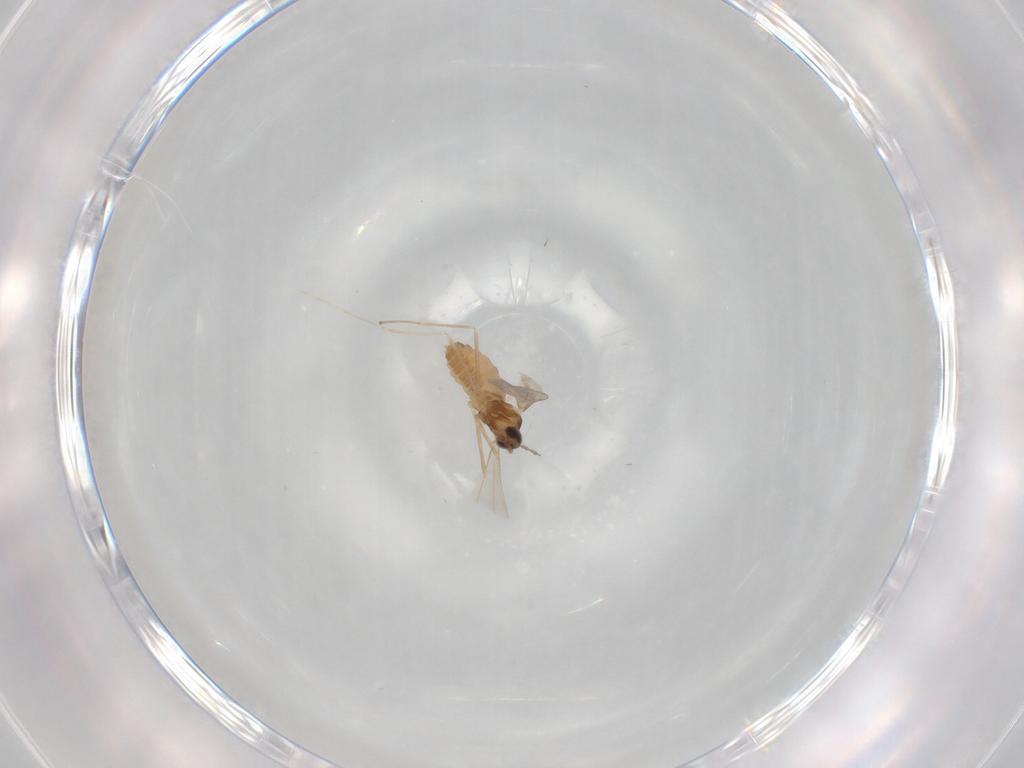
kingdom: Animalia
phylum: Arthropoda
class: Insecta
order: Diptera
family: Cecidomyiidae
